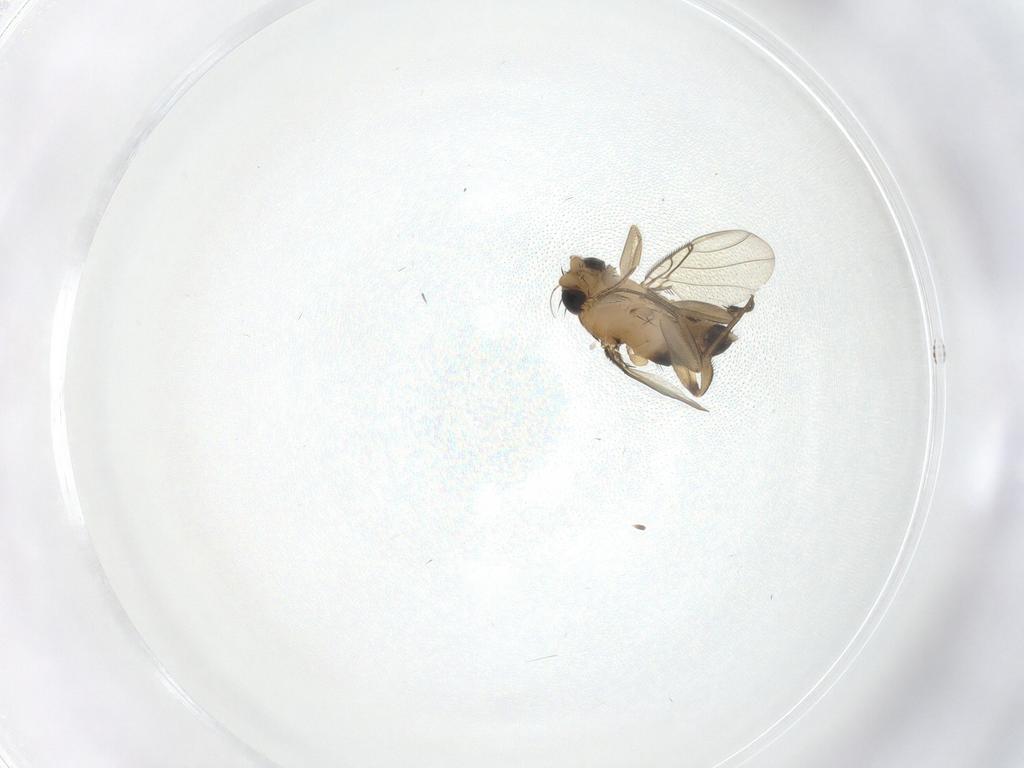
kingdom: Animalia
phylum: Arthropoda
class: Insecta
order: Diptera
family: Phoridae
